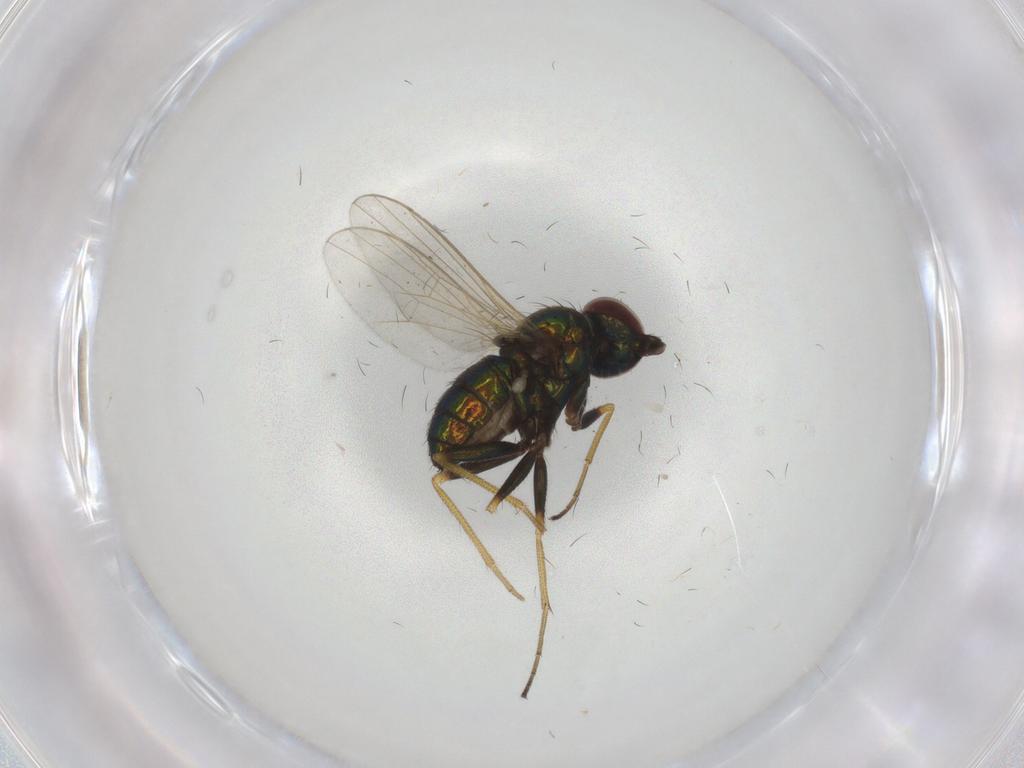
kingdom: Animalia
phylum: Arthropoda
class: Insecta
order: Diptera
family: Dolichopodidae
